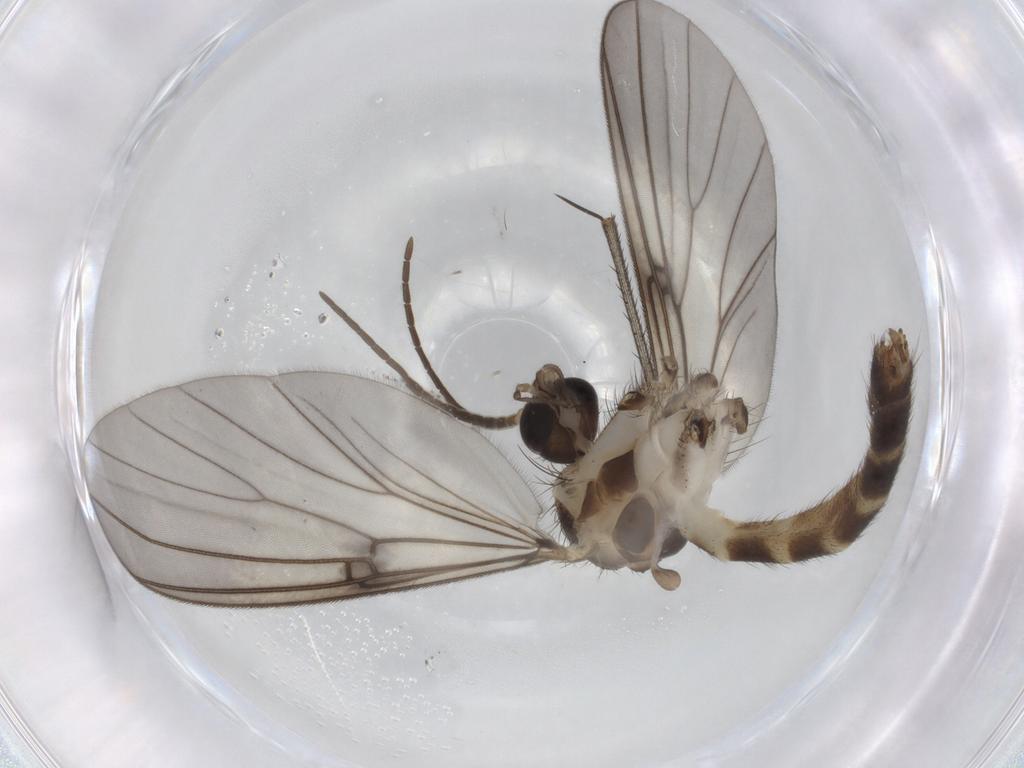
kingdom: Animalia
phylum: Arthropoda
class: Insecta
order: Diptera
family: Mycetophilidae
